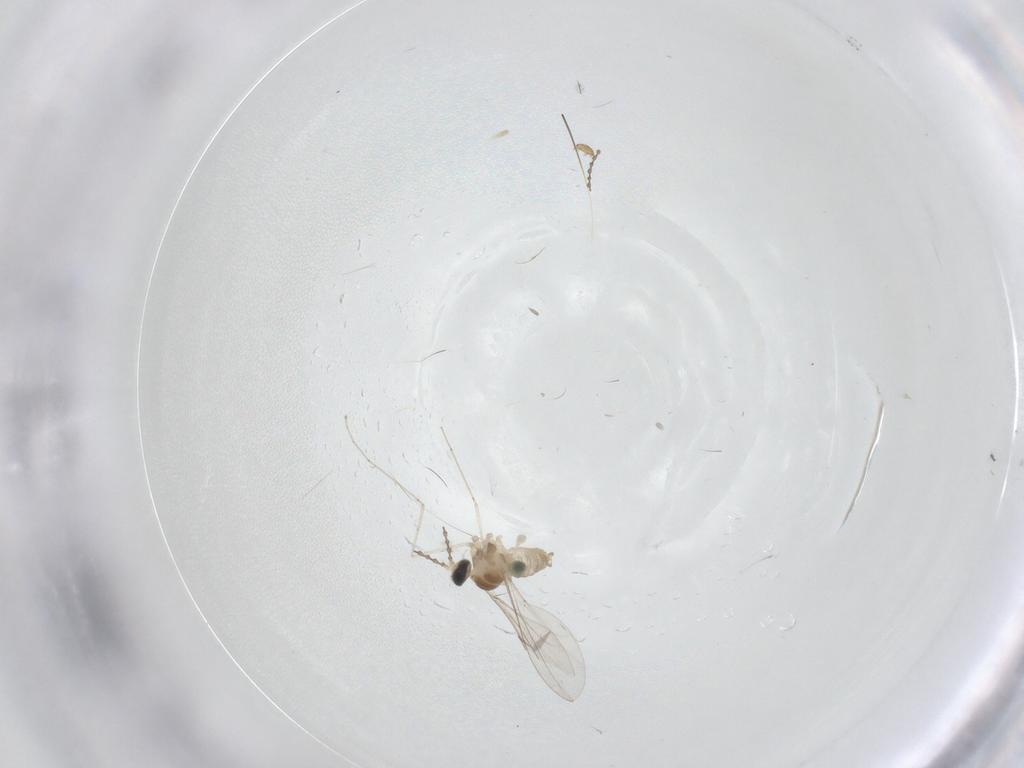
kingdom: Animalia
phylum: Arthropoda
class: Insecta
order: Diptera
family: Cecidomyiidae
